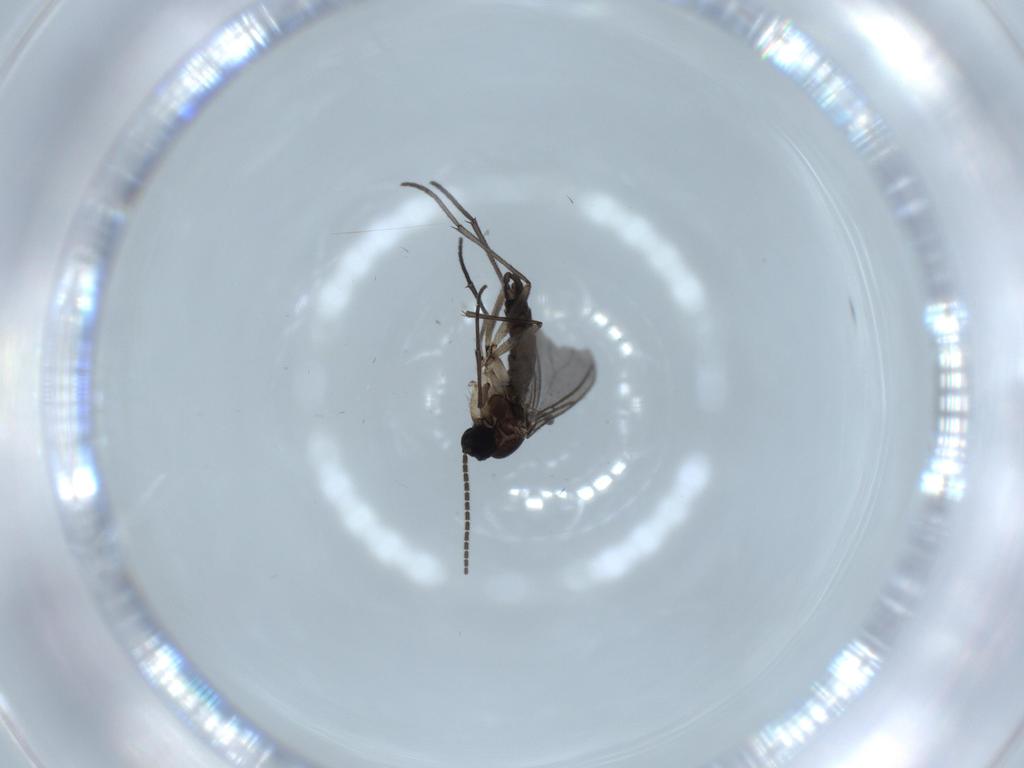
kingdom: Animalia
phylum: Arthropoda
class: Insecta
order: Diptera
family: Sciaridae
